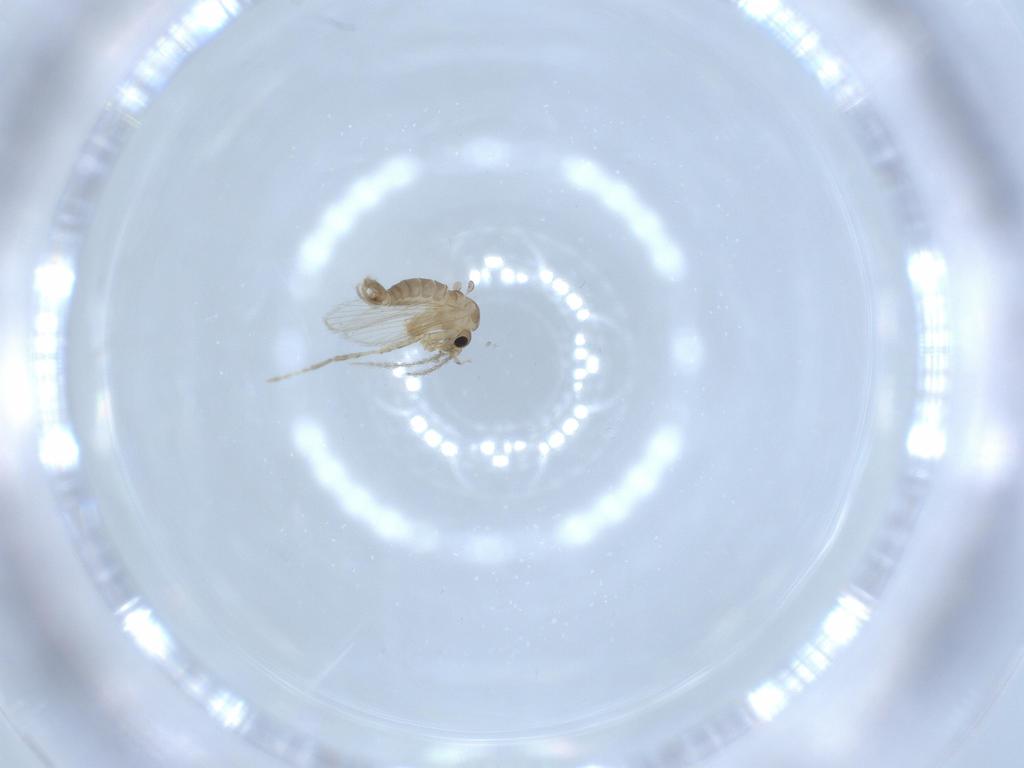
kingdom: Animalia
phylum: Arthropoda
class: Insecta
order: Diptera
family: Psychodidae
